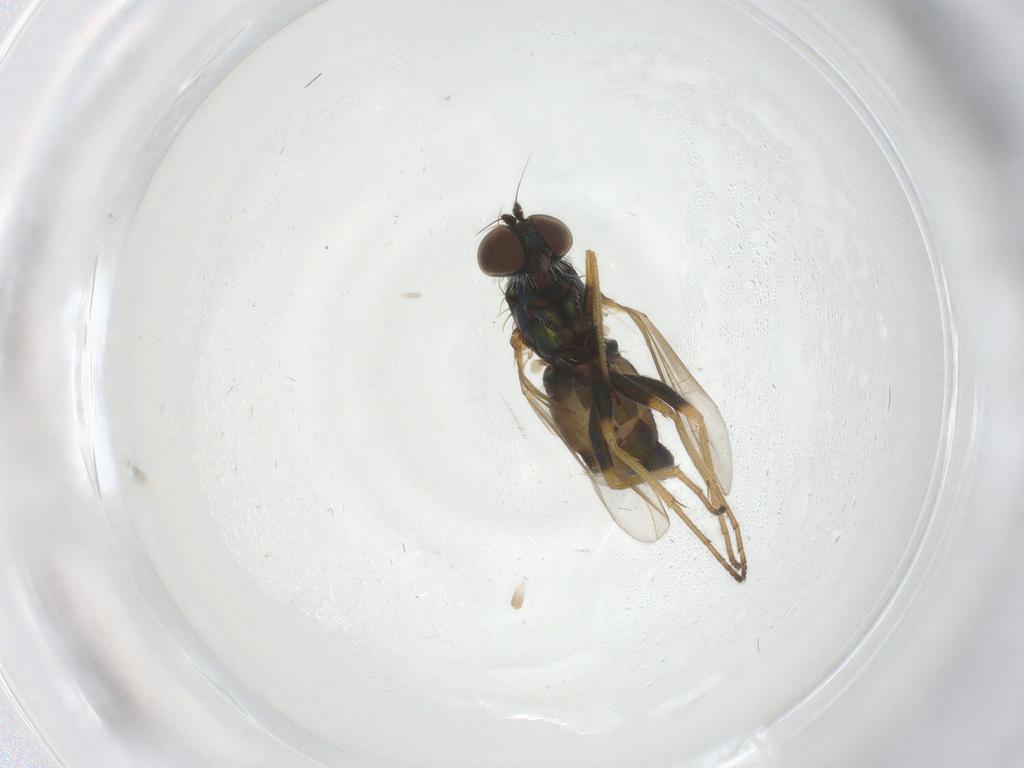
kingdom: Animalia
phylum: Arthropoda
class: Insecta
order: Diptera
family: Dolichopodidae
